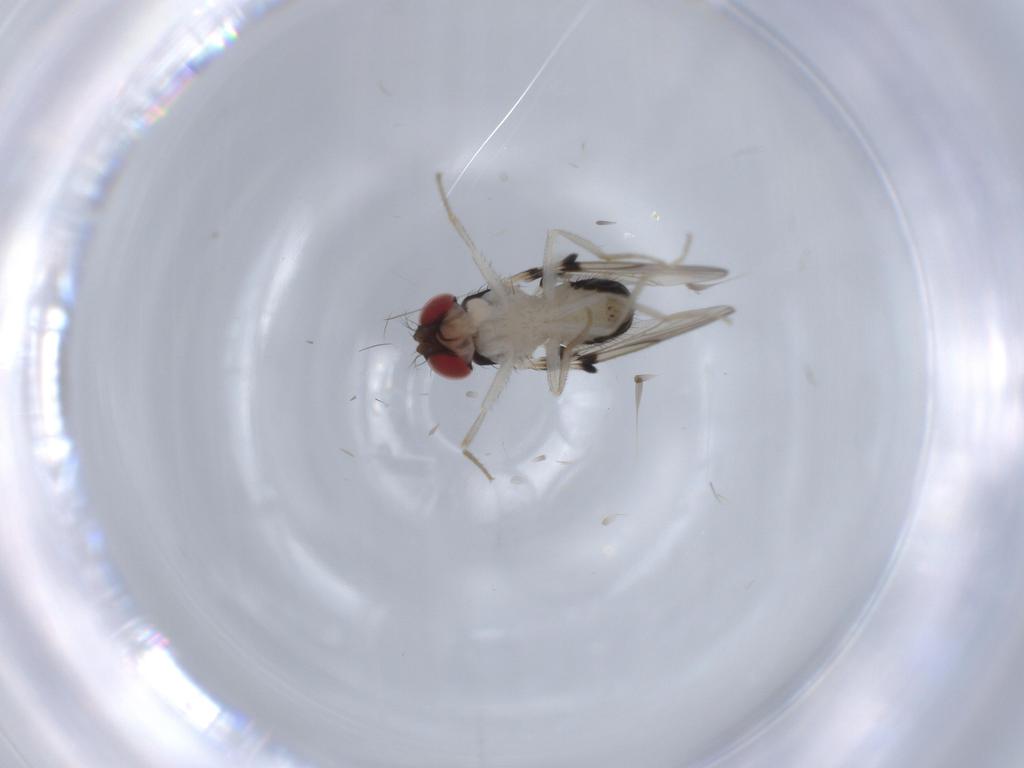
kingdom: Animalia
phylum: Arthropoda
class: Insecta
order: Diptera
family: Drosophilidae
